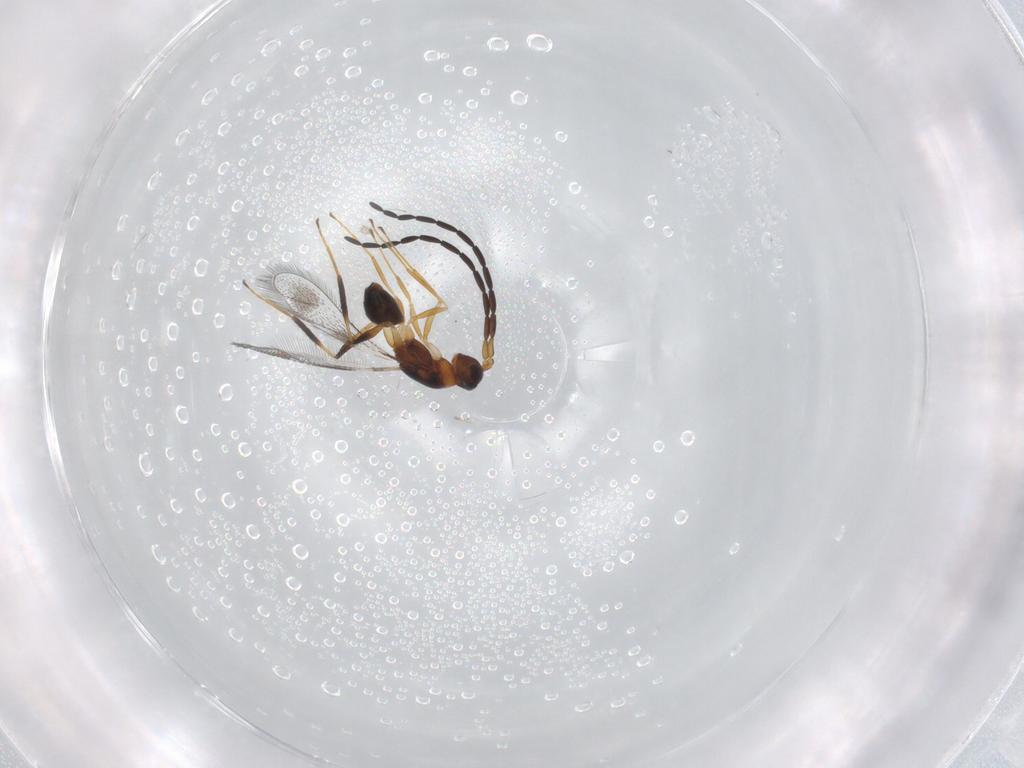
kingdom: Animalia
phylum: Arthropoda
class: Insecta
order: Hymenoptera
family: Mymaridae
